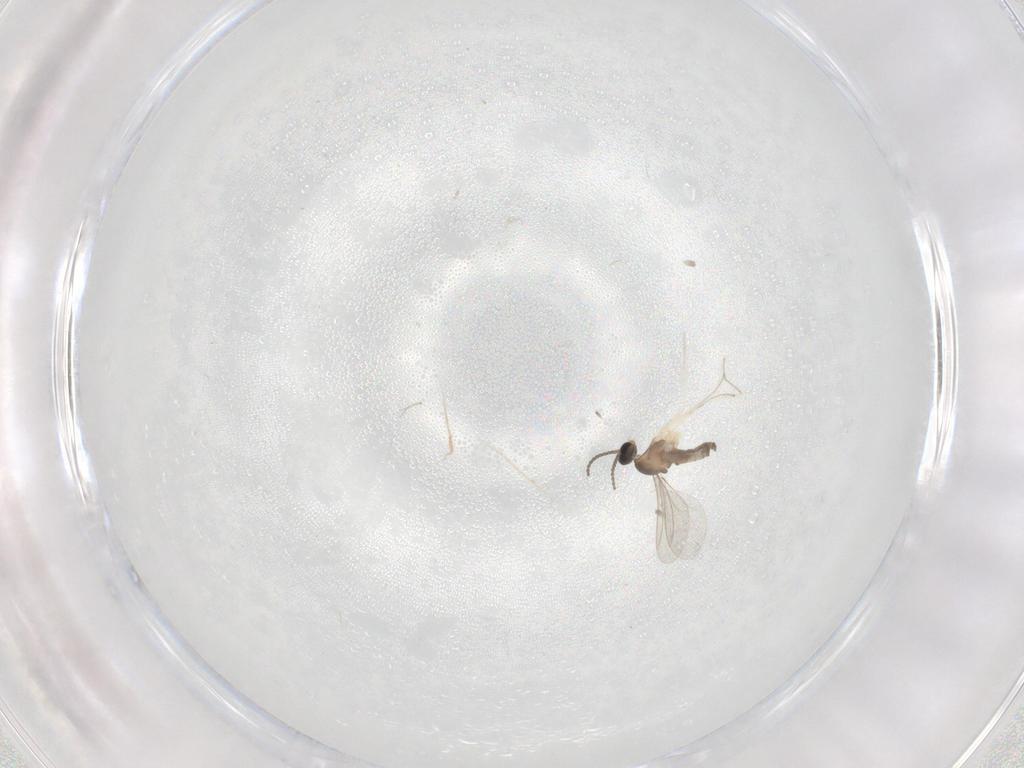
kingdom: Animalia
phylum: Arthropoda
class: Insecta
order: Diptera
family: Cecidomyiidae
